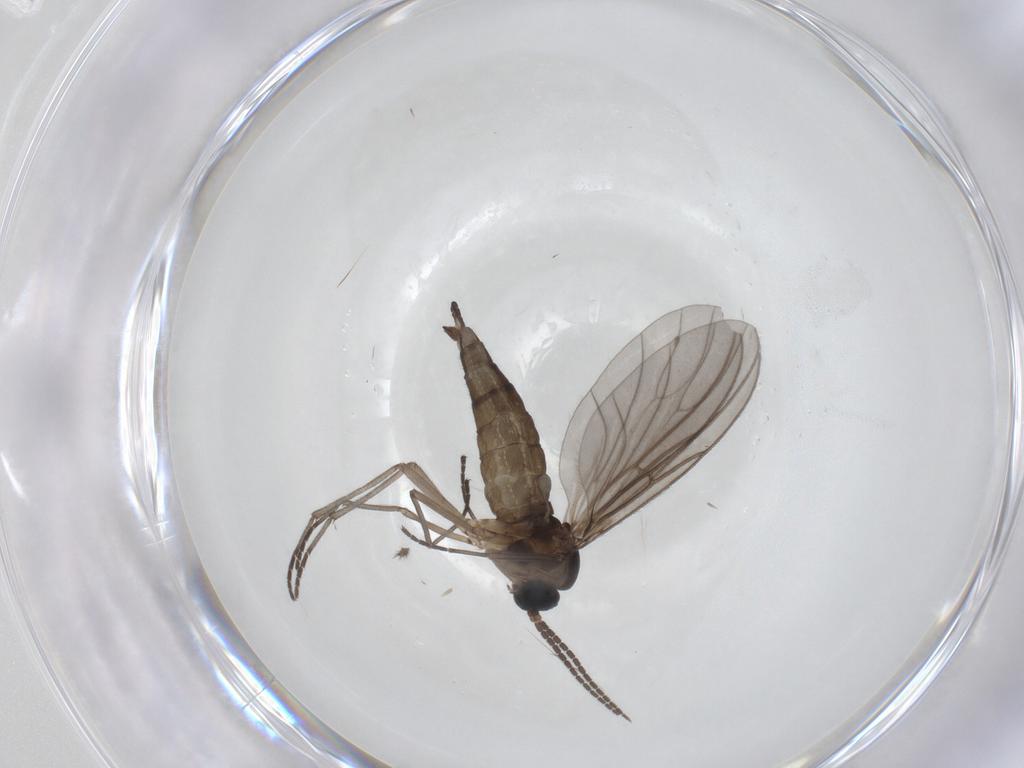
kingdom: Animalia
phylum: Arthropoda
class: Insecta
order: Diptera
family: Sciaridae
